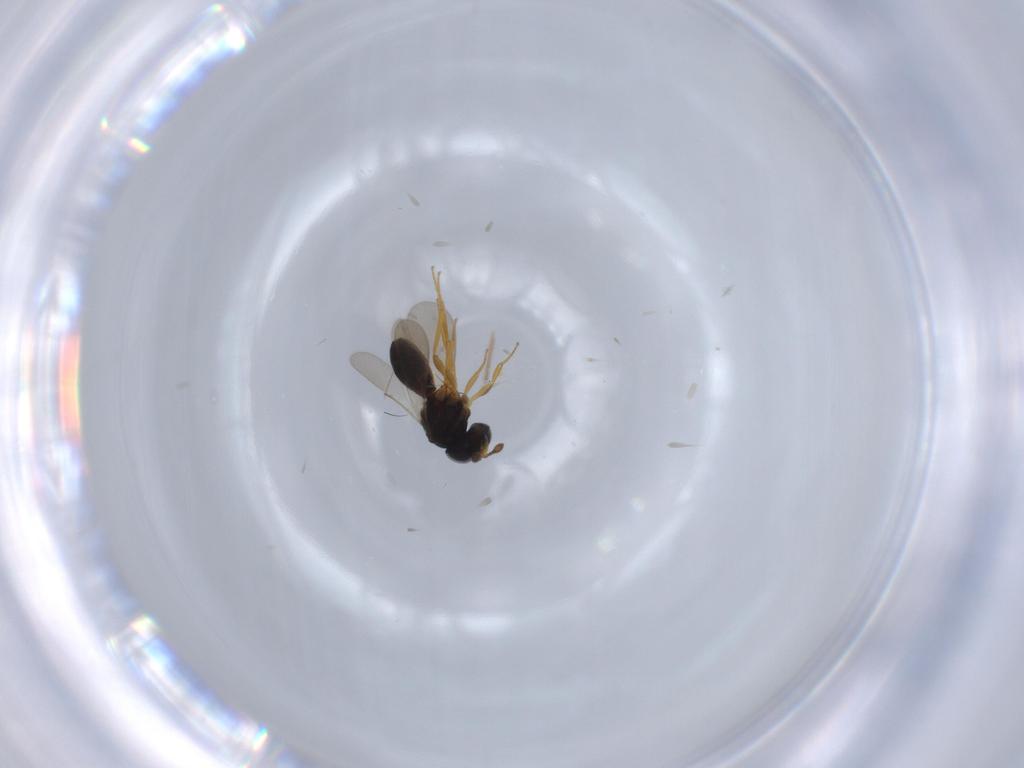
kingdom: Animalia
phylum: Arthropoda
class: Insecta
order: Hymenoptera
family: Scelionidae
